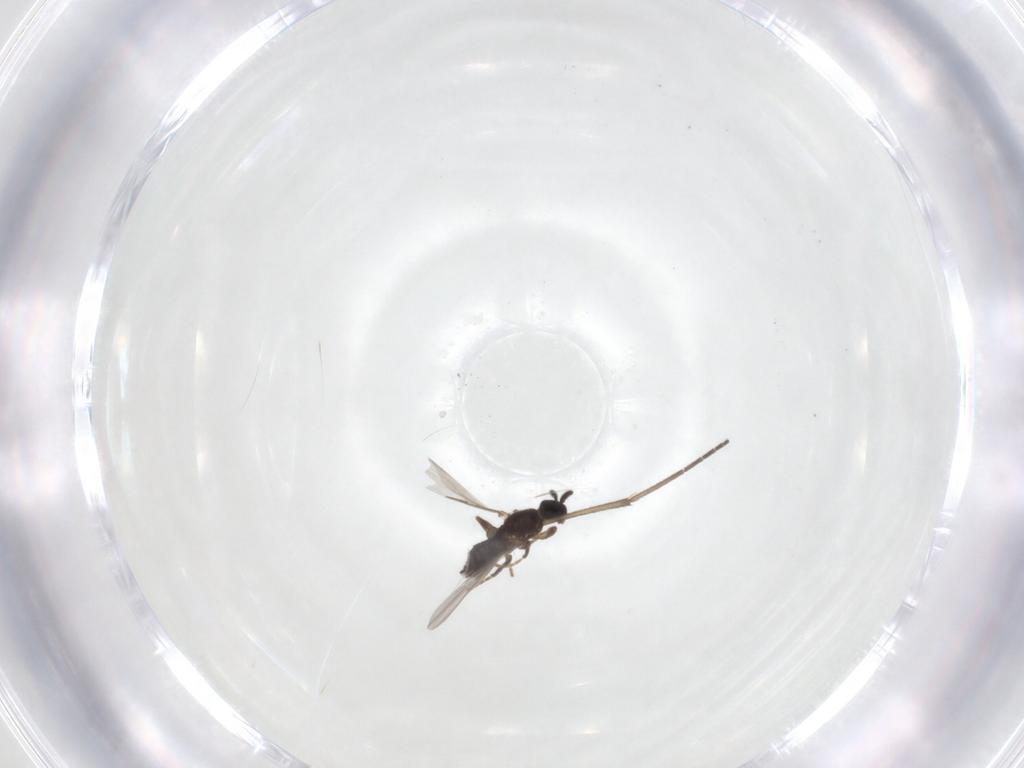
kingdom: Animalia
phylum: Arthropoda
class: Insecta
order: Diptera
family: Scatopsidae
